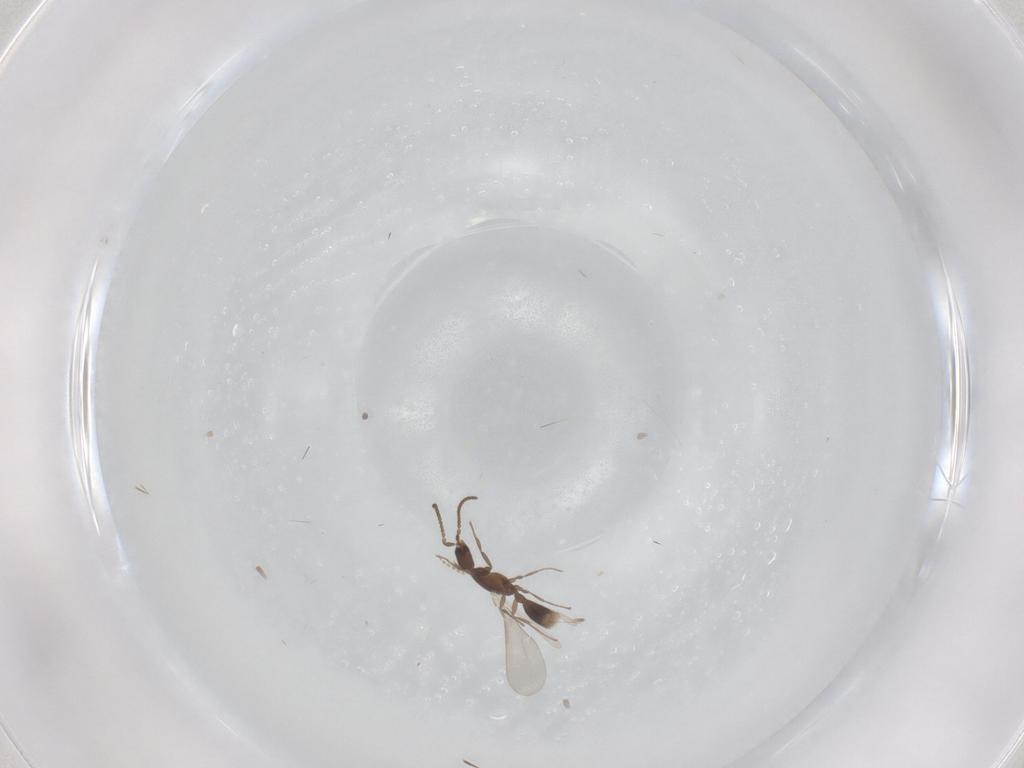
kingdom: Animalia
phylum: Arthropoda
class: Insecta
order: Hymenoptera
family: Formicidae
